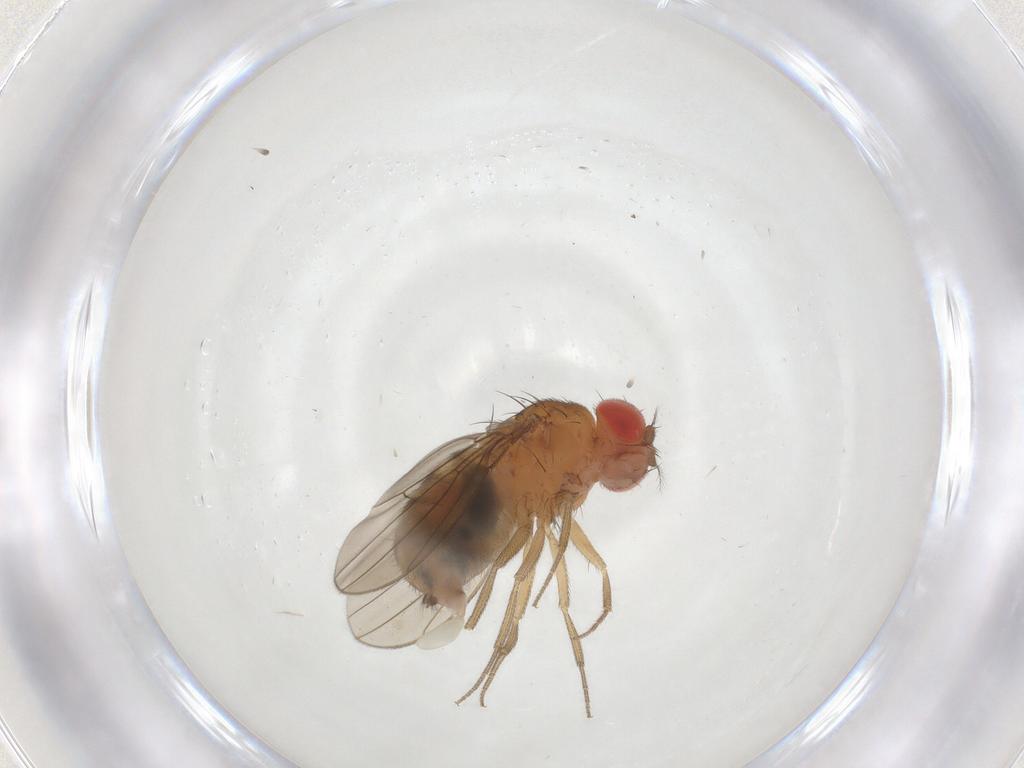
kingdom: Animalia
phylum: Arthropoda
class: Insecta
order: Diptera
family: Drosophilidae
